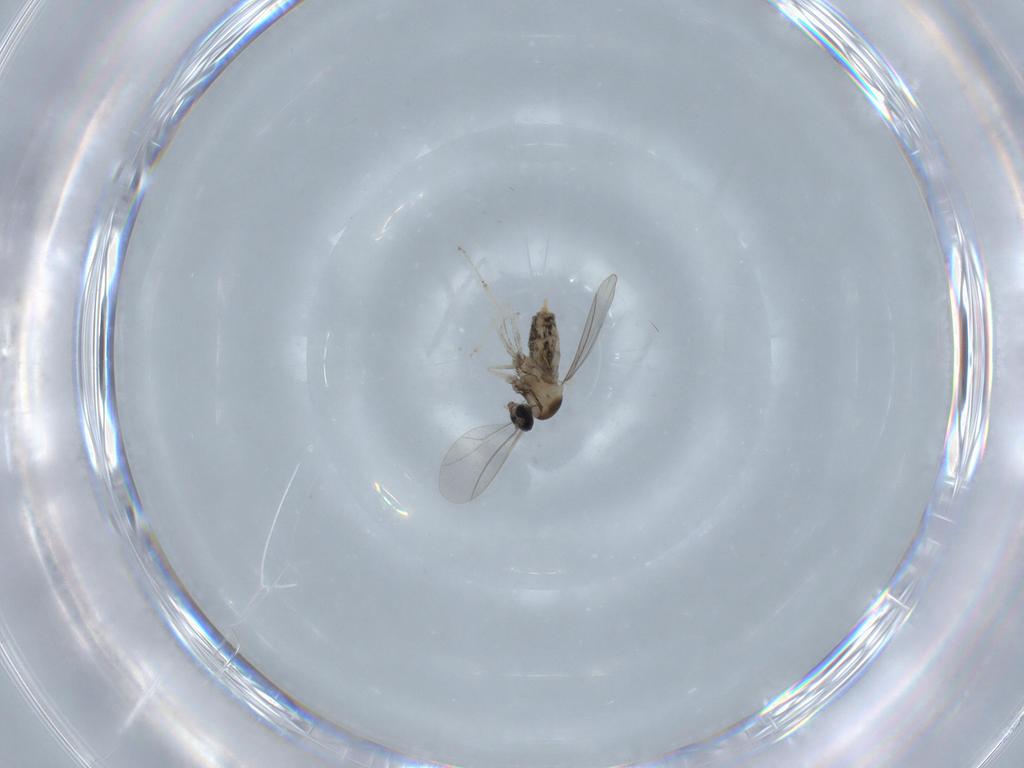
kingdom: Animalia
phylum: Arthropoda
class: Insecta
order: Diptera
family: Cecidomyiidae
